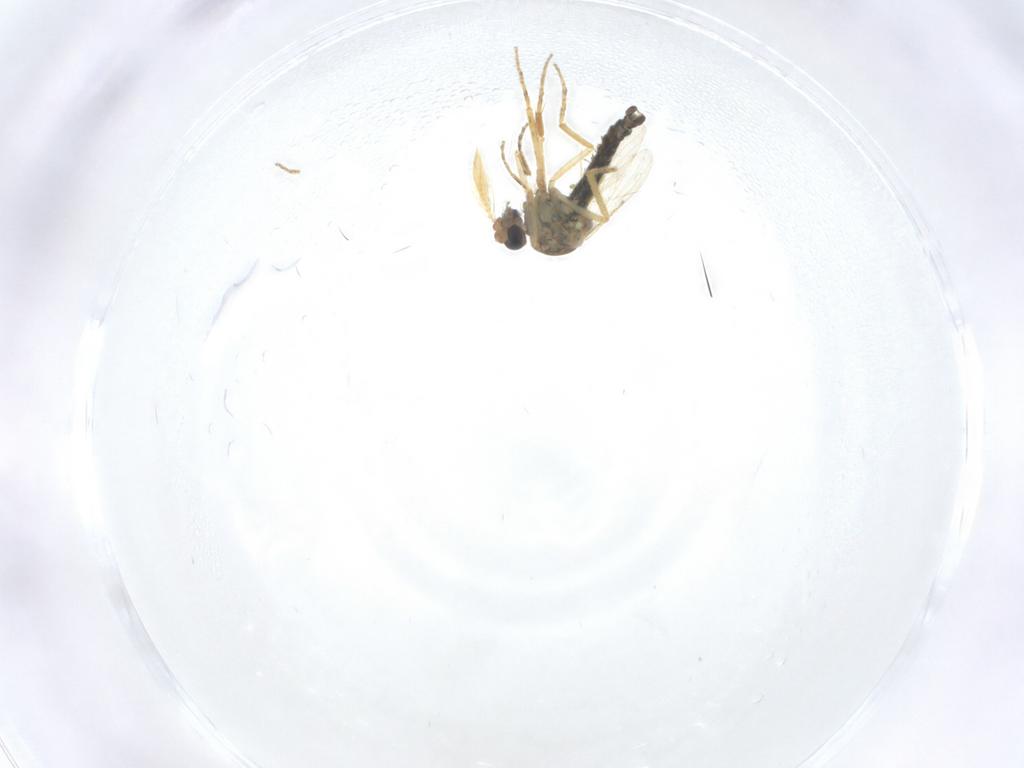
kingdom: Animalia
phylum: Arthropoda
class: Insecta
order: Diptera
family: Ceratopogonidae
